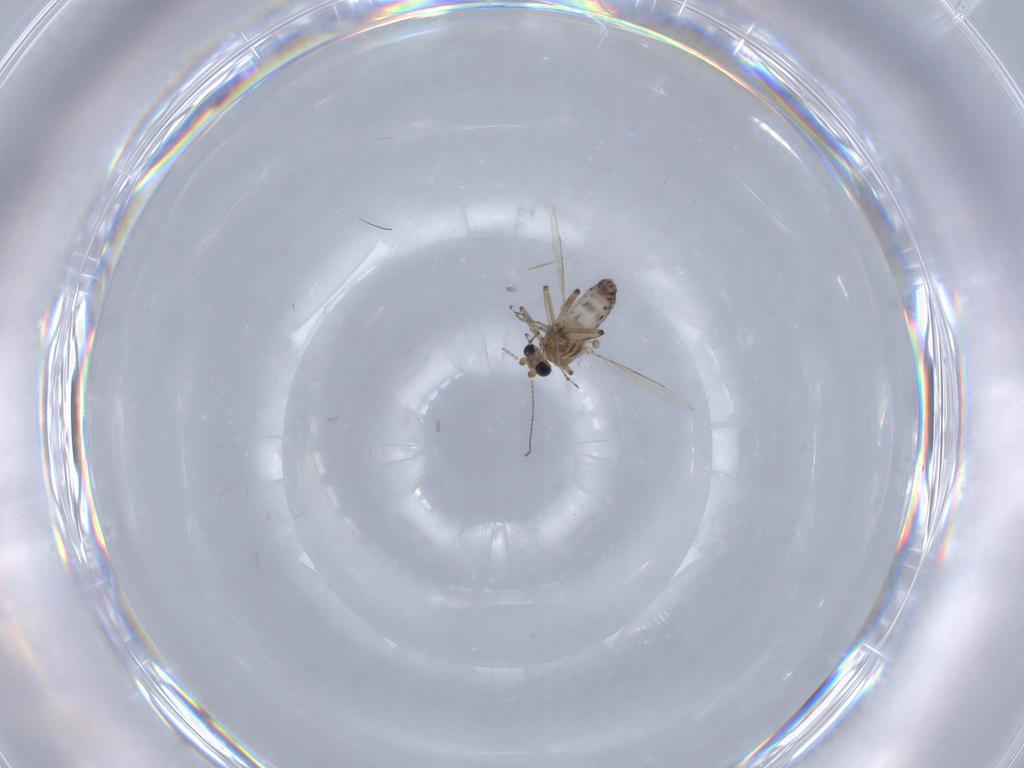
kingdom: Animalia
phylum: Arthropoda
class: Insecta
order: Diptera
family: Ceratopogonidae
